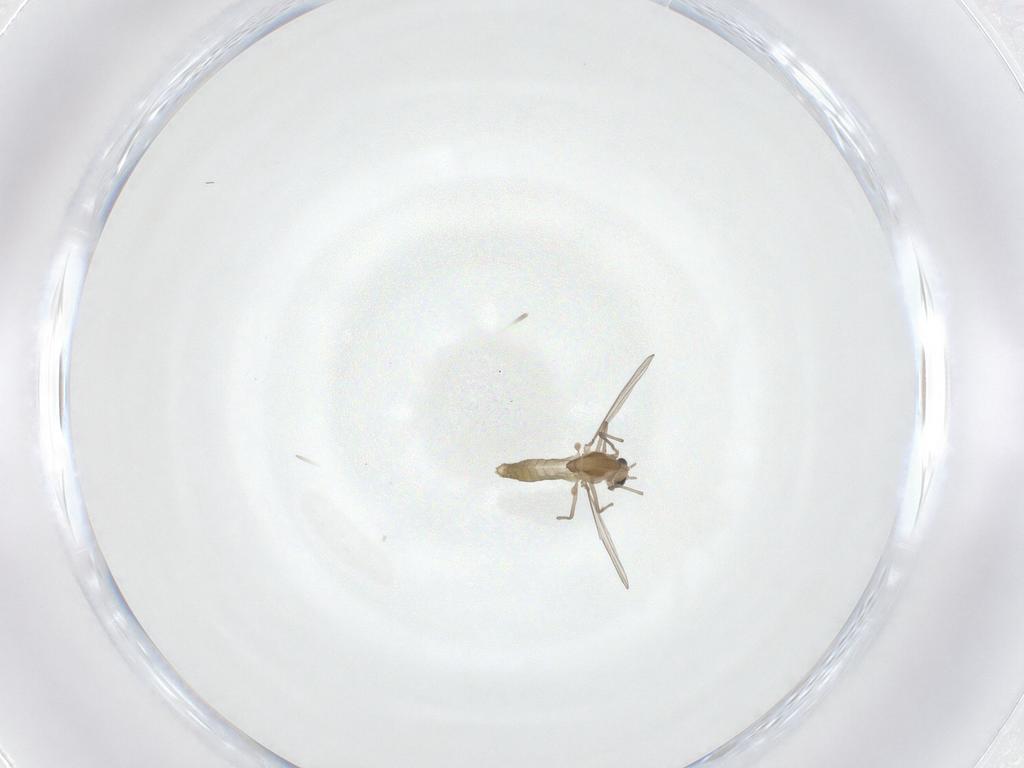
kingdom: Animalia
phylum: Arthropoda
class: Insecta
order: Diptera
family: Chironomidae
